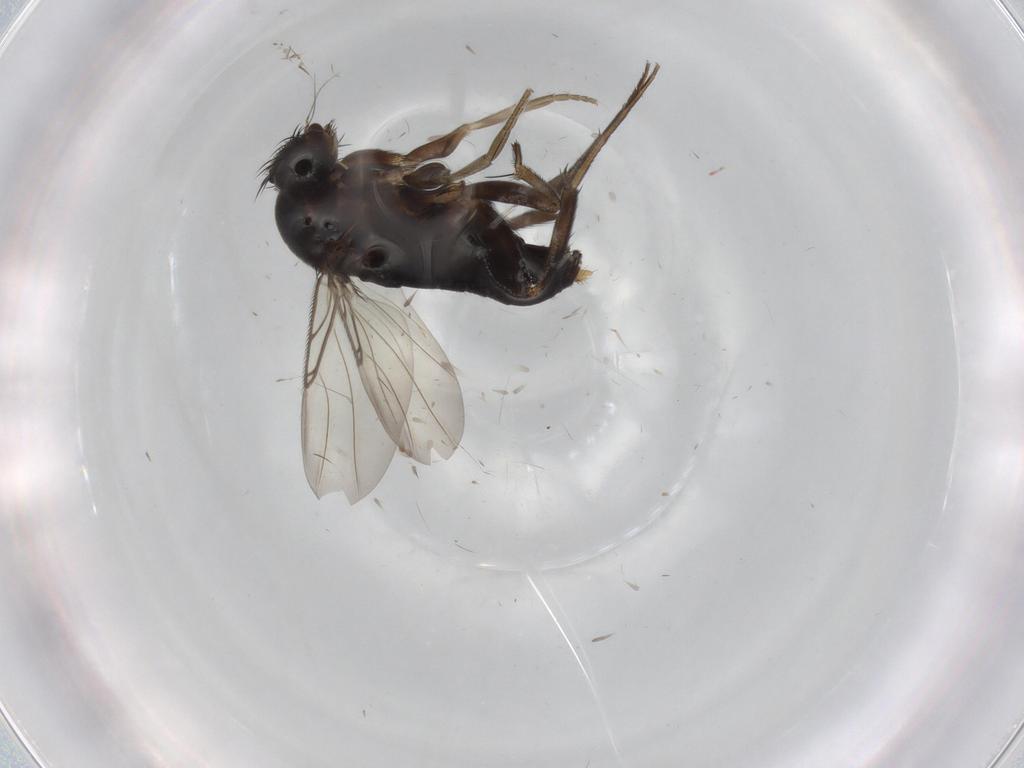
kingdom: Animalia
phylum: Arthropoda
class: Insecta
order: Diptera
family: Phoridae
